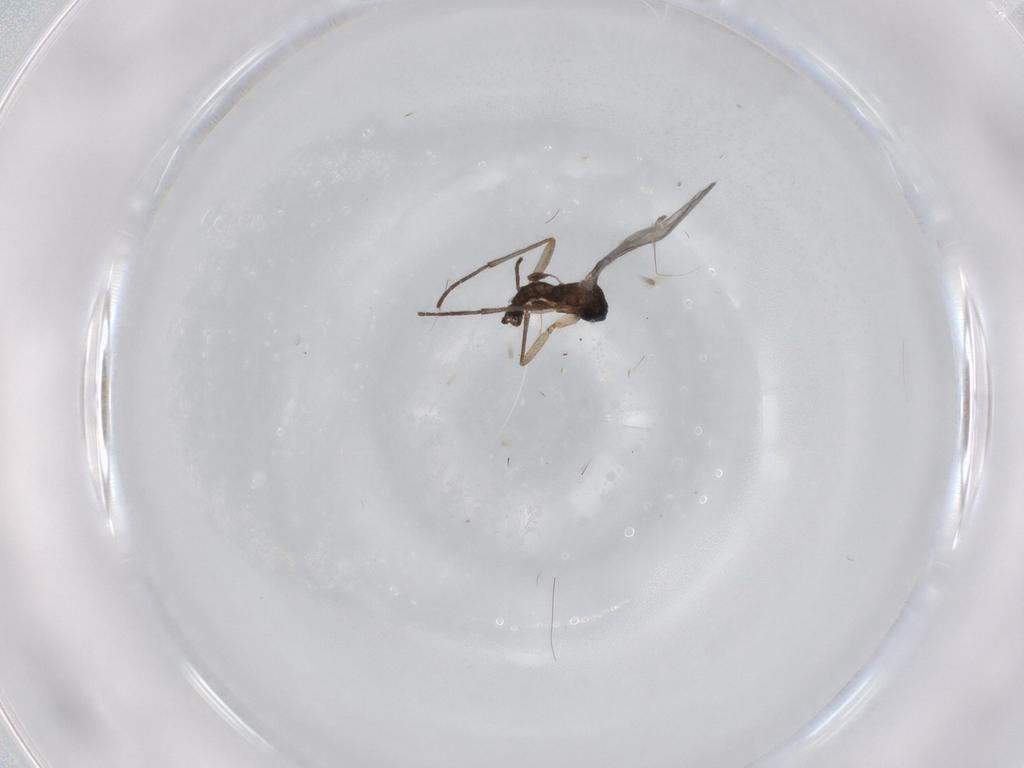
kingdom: Animalia
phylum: Arthropoda
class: Insecta
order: Diptera
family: Sciaridae
